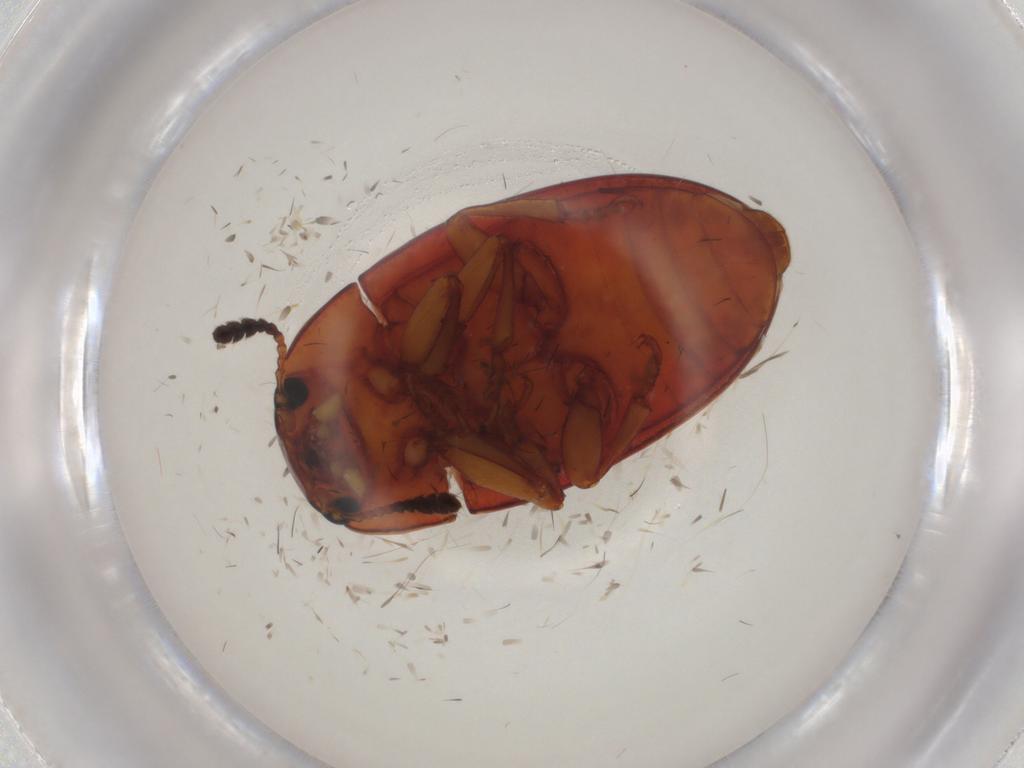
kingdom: Animalia
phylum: Arthropoda
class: Insecta
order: Coleoptera
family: Erotylidae
